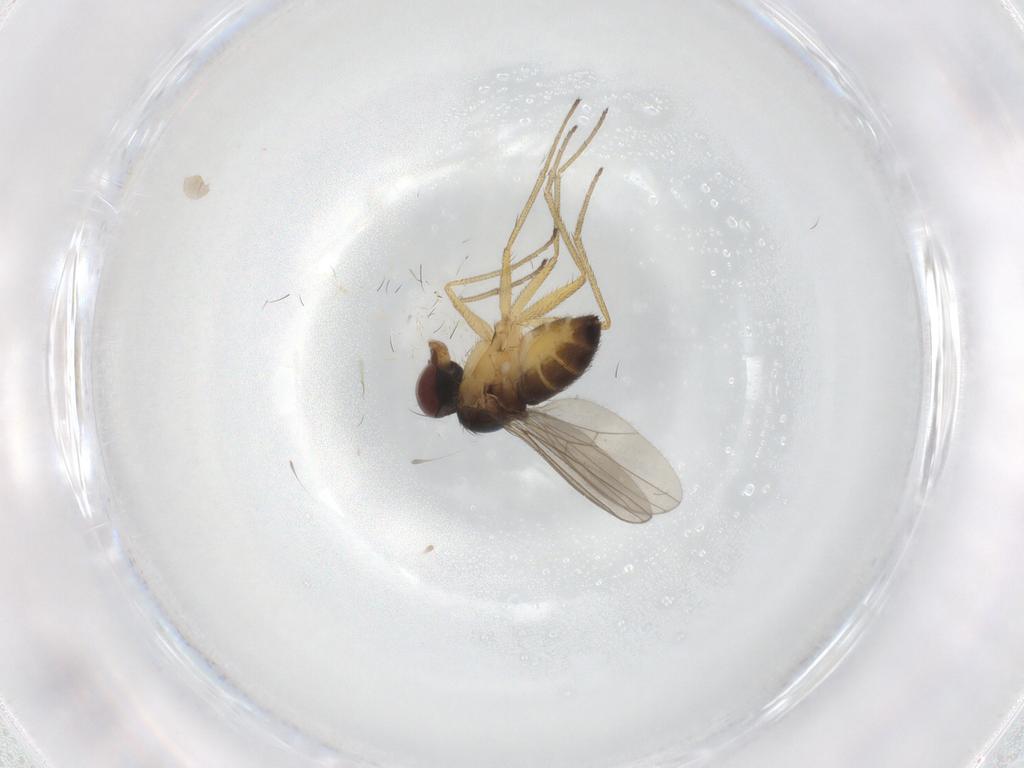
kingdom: Animalia
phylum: Arthropoda
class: Insecta
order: Diptera
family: Dolichopodidae
